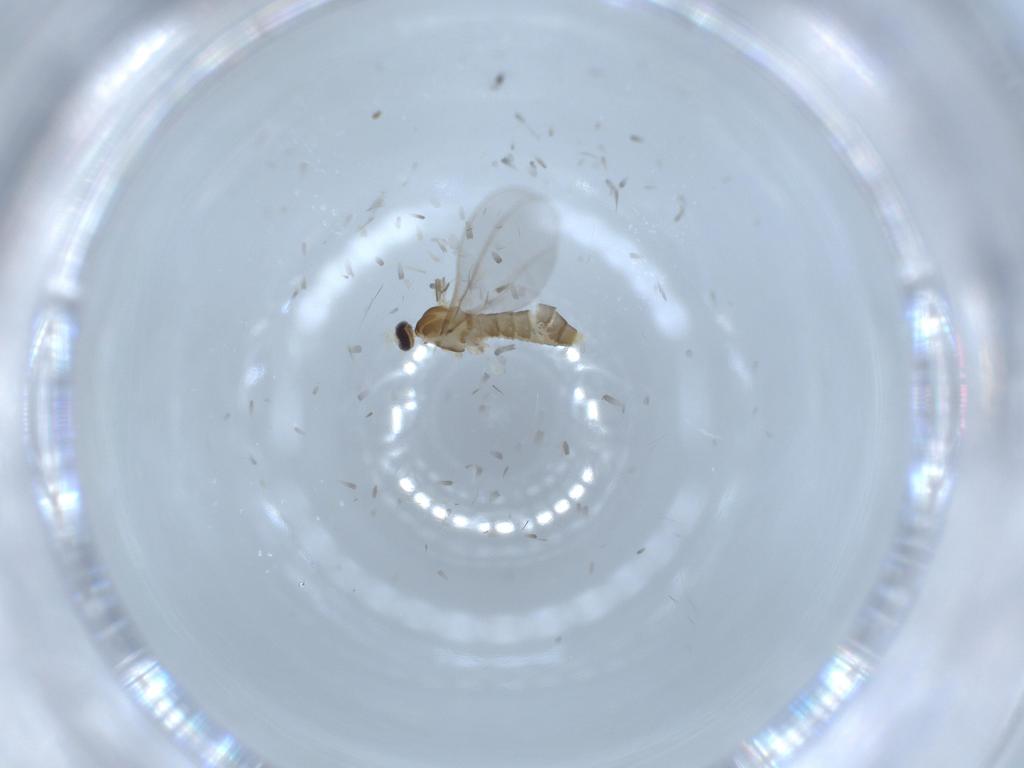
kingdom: Animalia
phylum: Arthropoda
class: Insecta
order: Diptera
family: Cecidomyiidae
